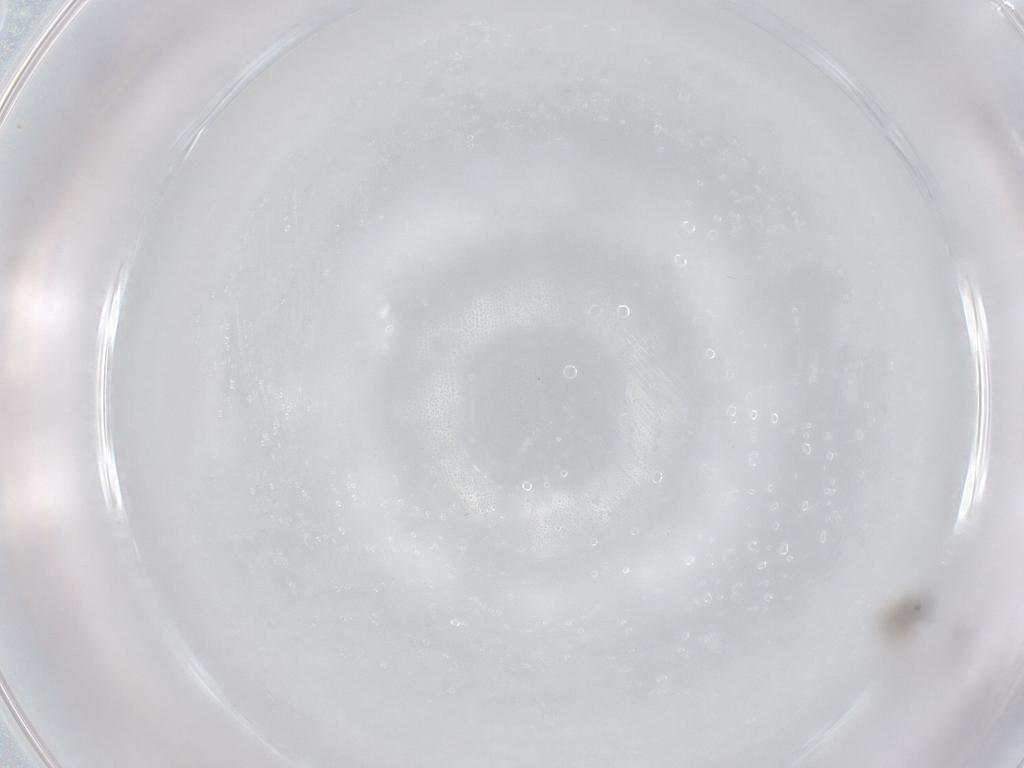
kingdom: Animalia
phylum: Arthropoda
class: Insecta
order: Diptera
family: Cecidomyiidae
